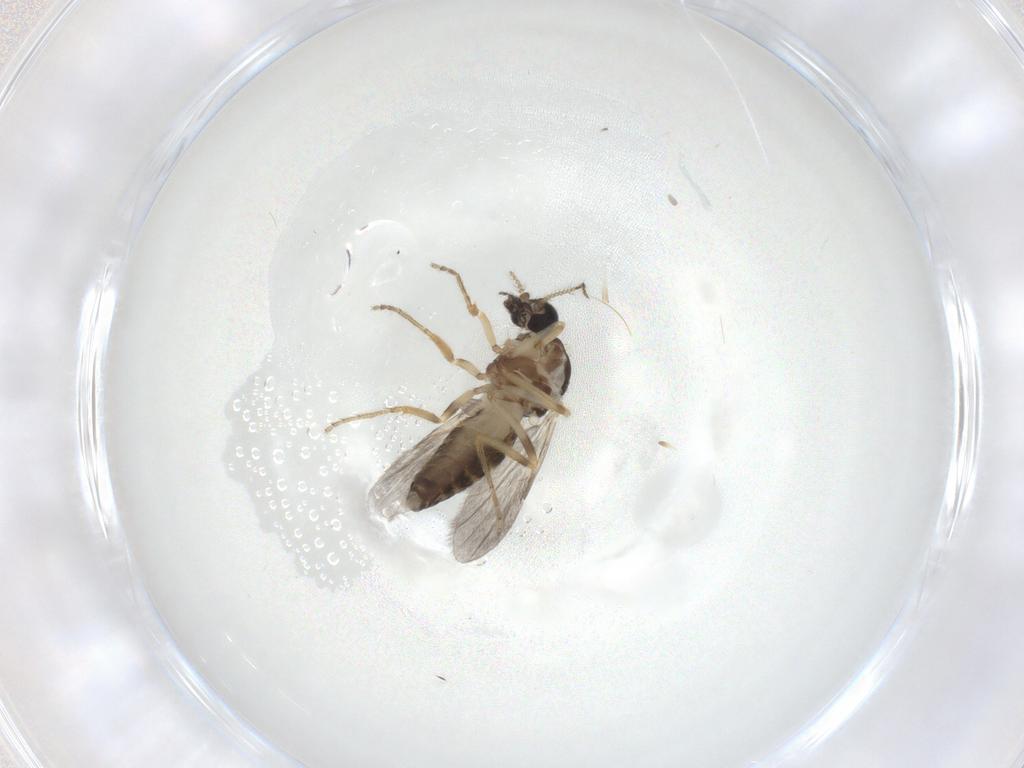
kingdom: Animalia
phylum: Arthropoda
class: Insecta
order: Diptera
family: Ceratopogonidae
